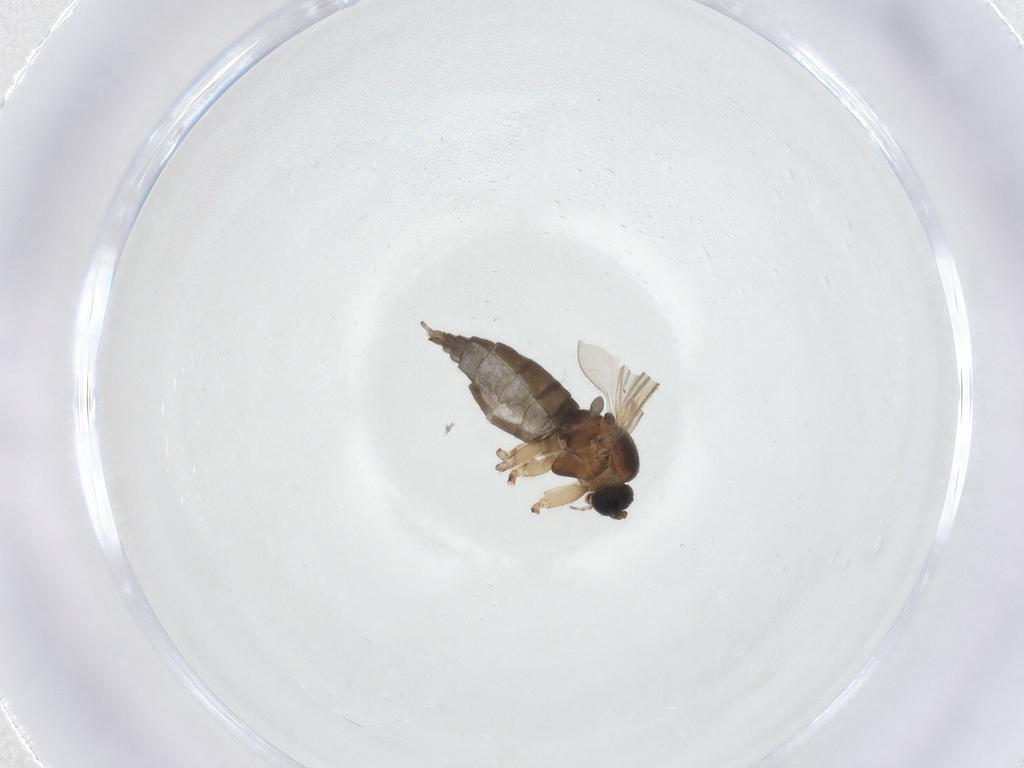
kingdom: Animalia
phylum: Arthropoda
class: Insecta
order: Diptera
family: Sciaridae
